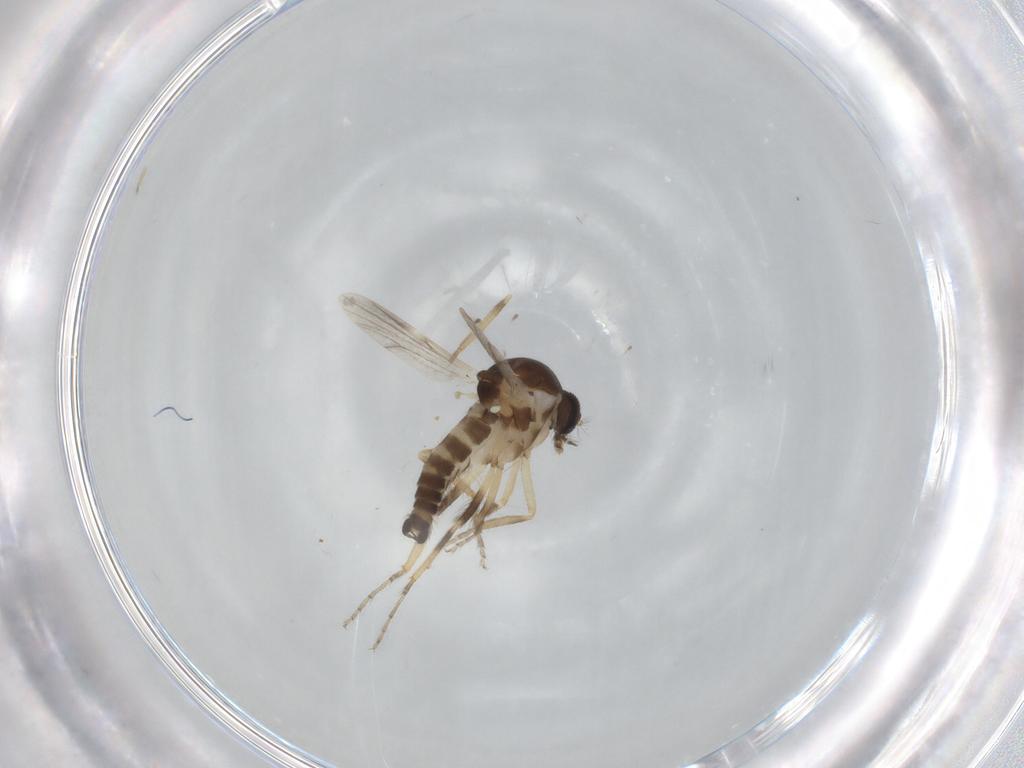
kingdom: Animalia
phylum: Arthropoda
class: Insecta
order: Diptera
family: Ceratopogonidae
